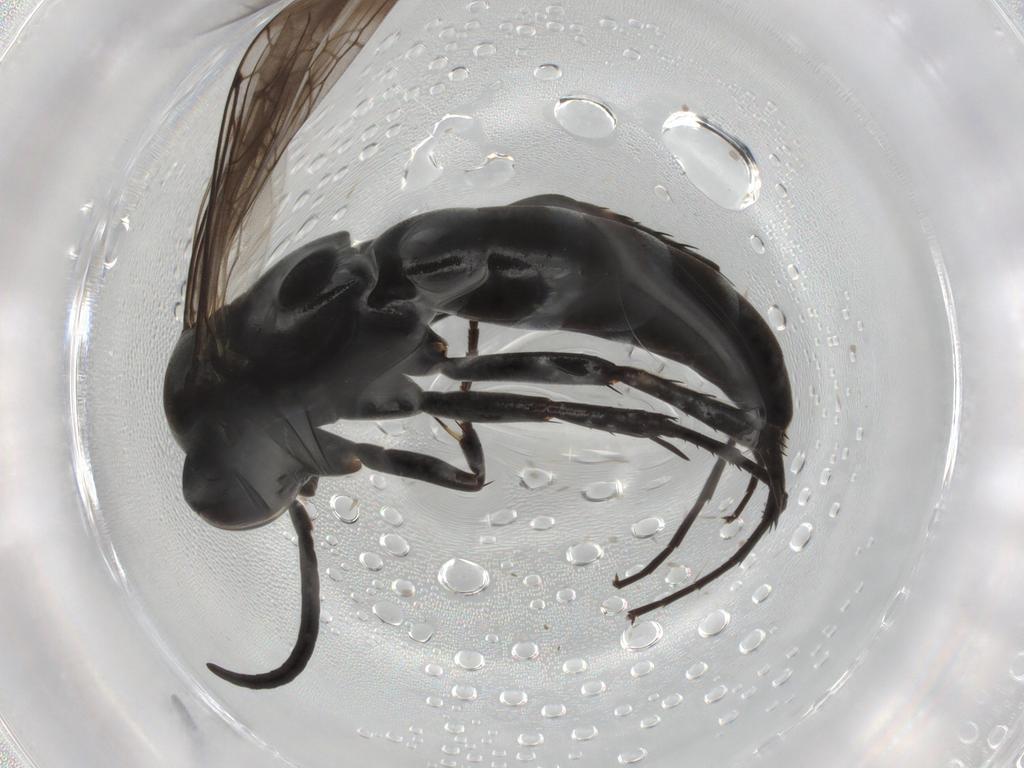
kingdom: Animalia
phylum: Arthropoda
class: Insecta
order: Hymenoptera
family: Pompilidae
